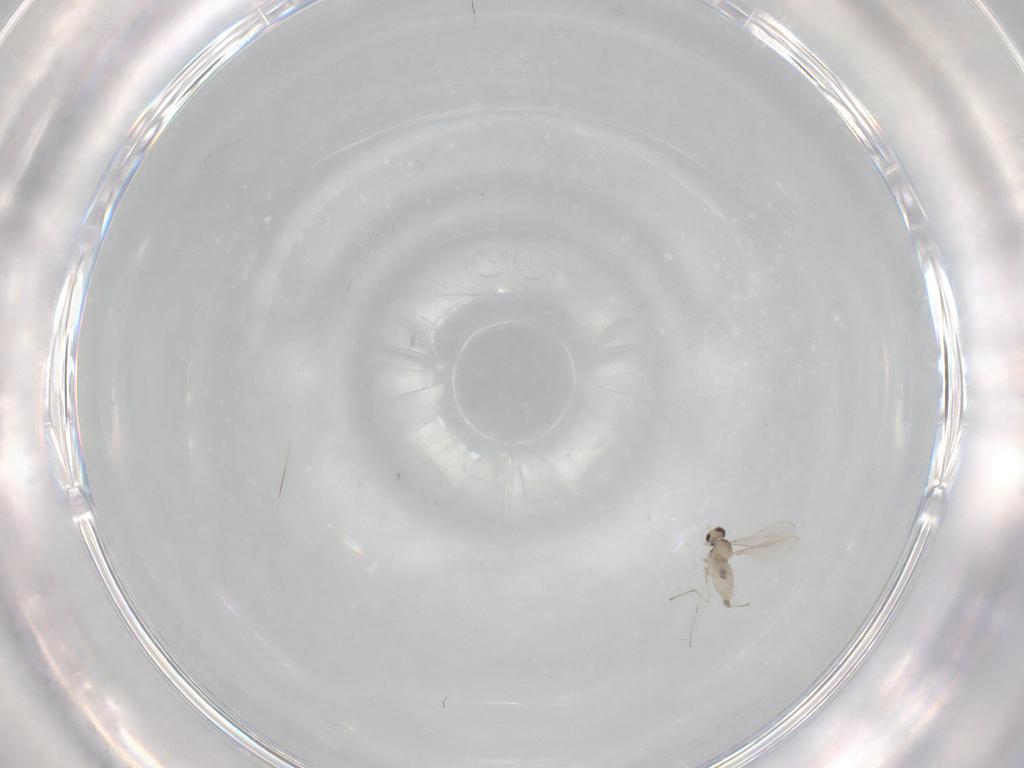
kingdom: Animalia
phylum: Arthropoda
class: Insecta
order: Diptera
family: Cecidomyiidae
